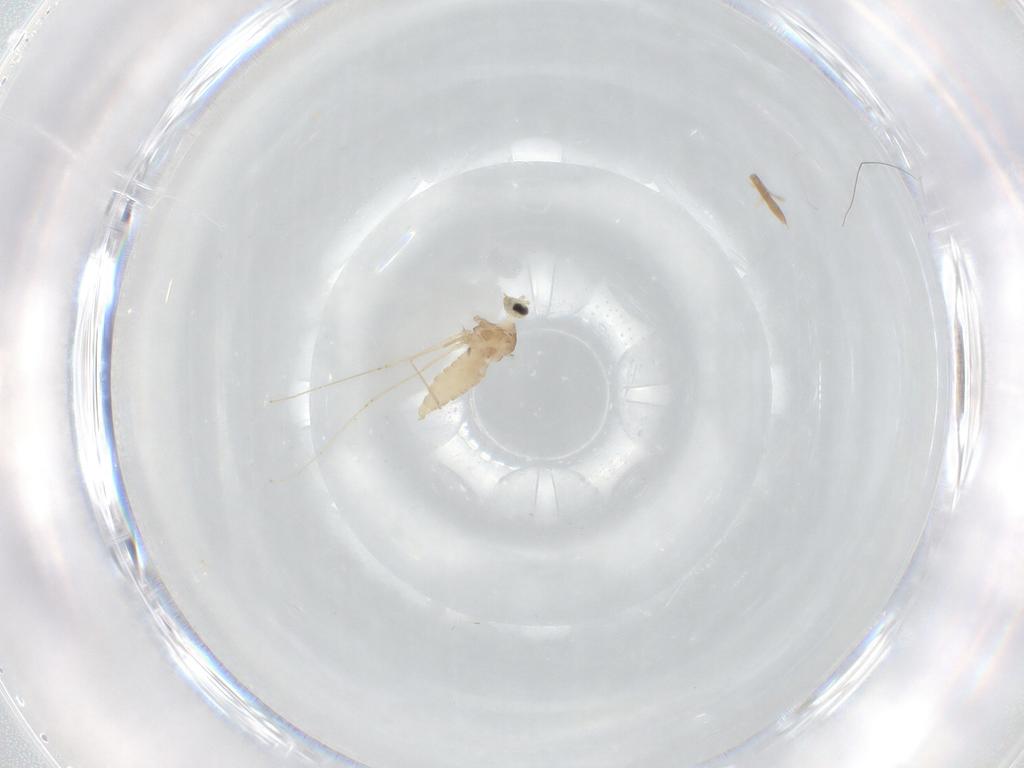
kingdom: Animalia
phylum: Arthropoda
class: Insecta
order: Diptera
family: Cecidomyiidae
